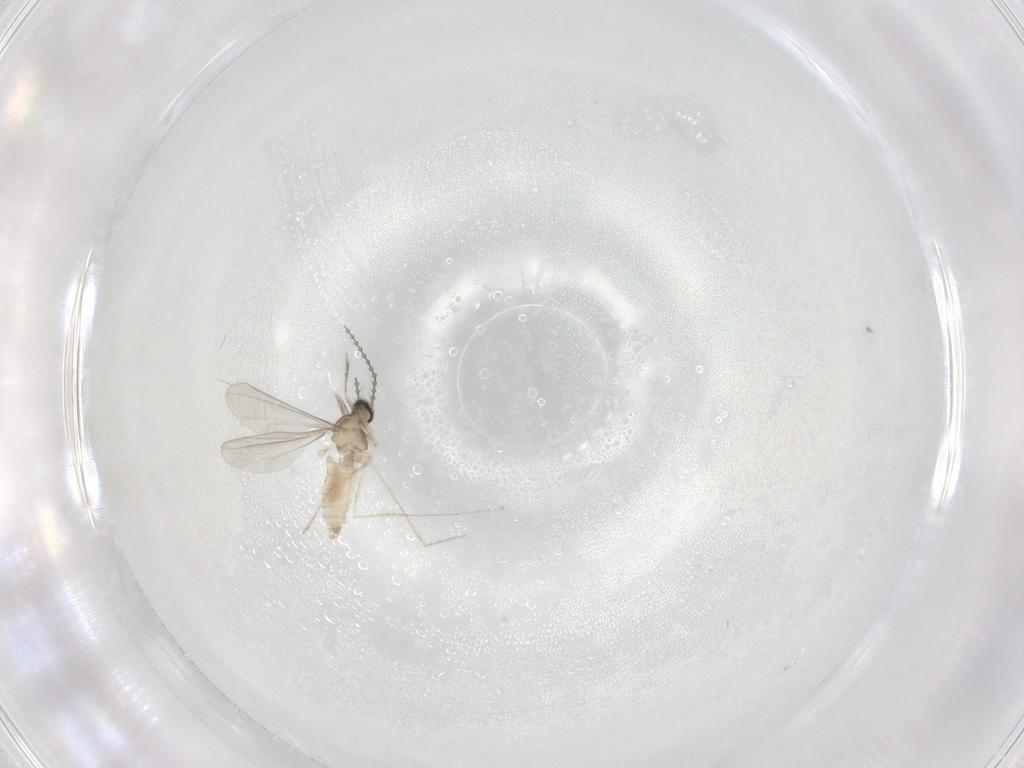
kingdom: Animalia
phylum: Arthropoda
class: Insecta
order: Diptera
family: Cecidomyiidae
